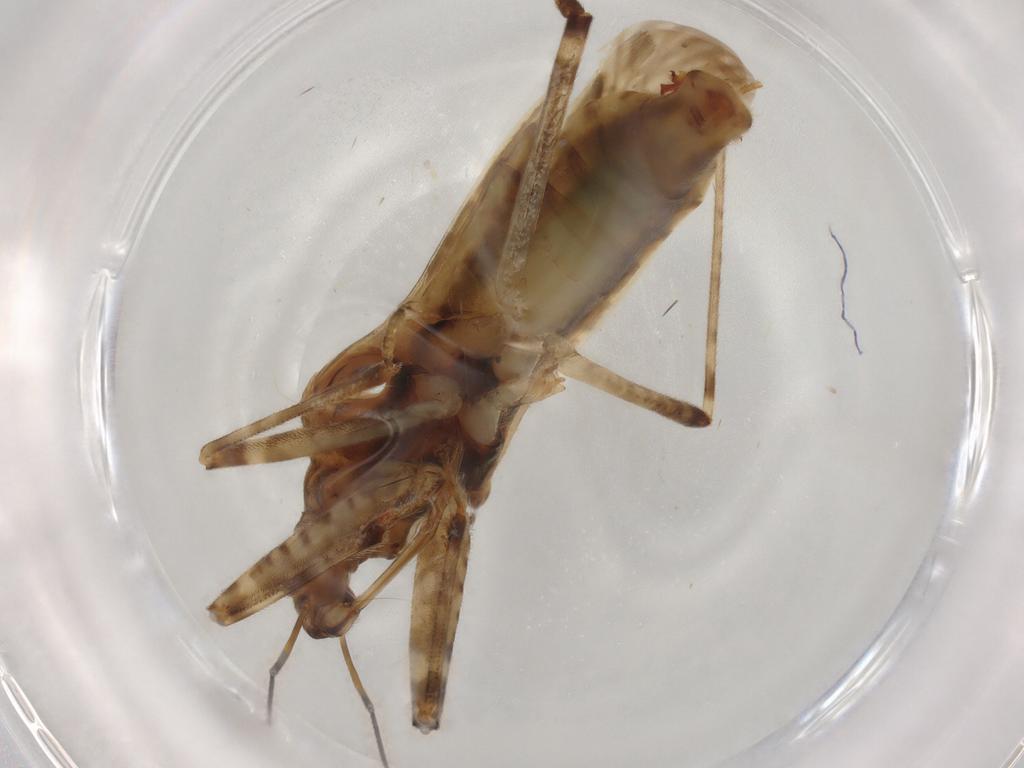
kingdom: Animalia
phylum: Arthropoda
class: Insecta
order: Hemiptera
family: Nabidae
